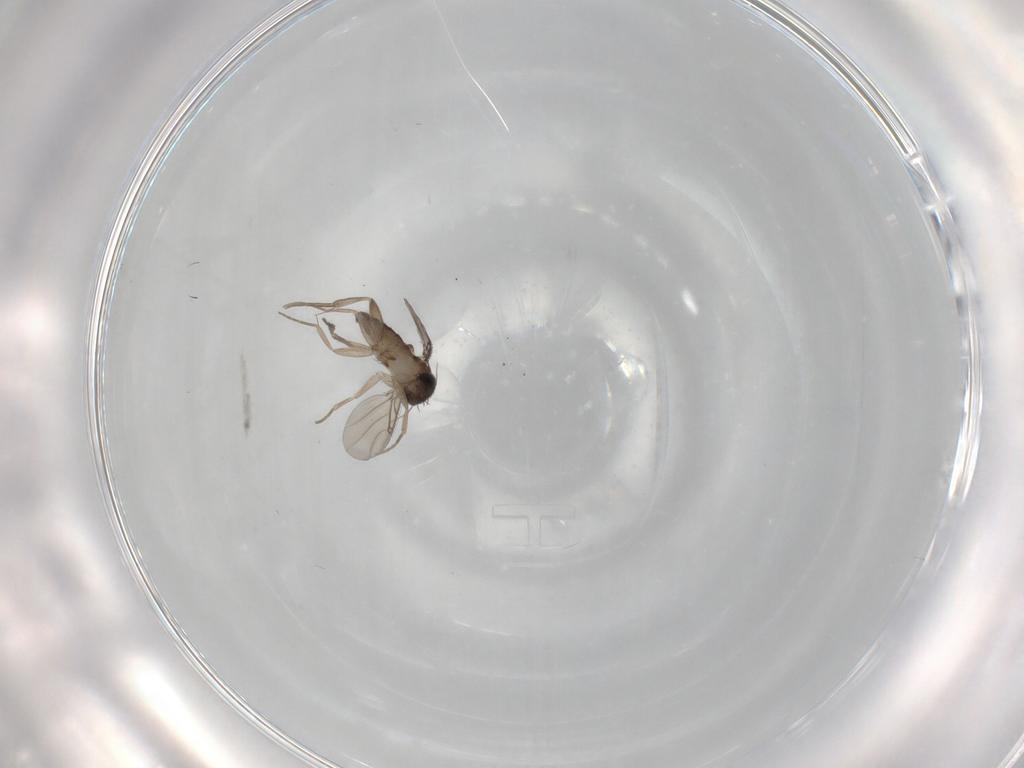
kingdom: Animalia
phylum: Arthropoda
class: Insecta
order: Diptera
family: Phoridae
